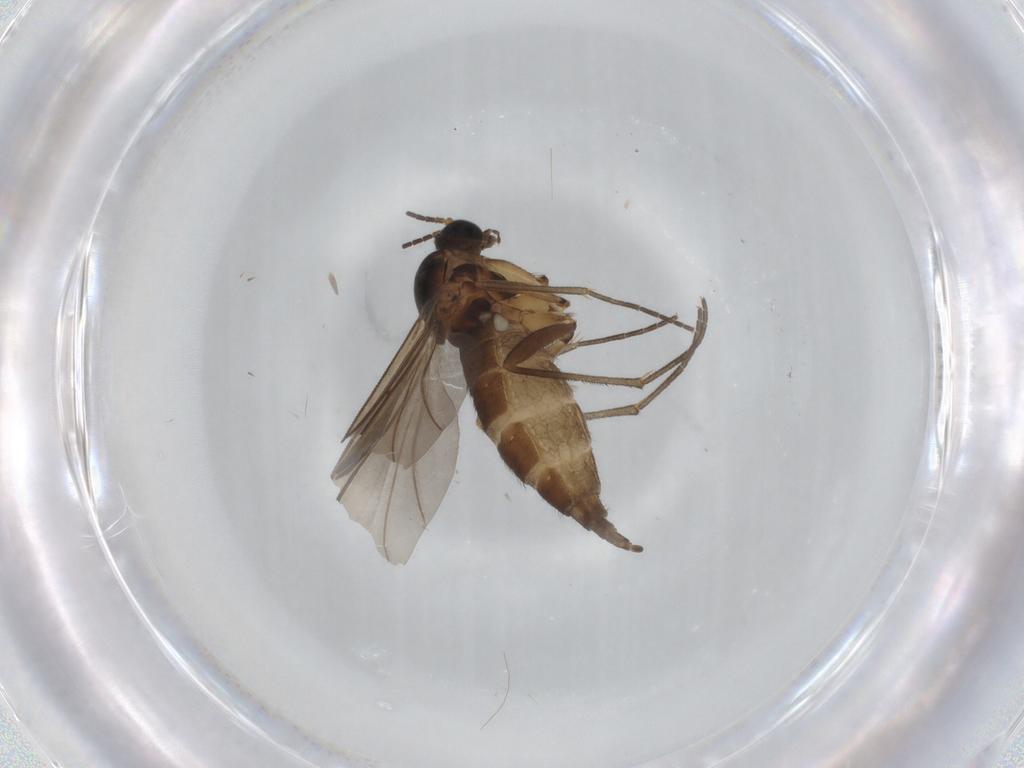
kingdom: Animalia
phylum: Arthropoda
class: Insecta
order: Diptera
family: Sciaridae
